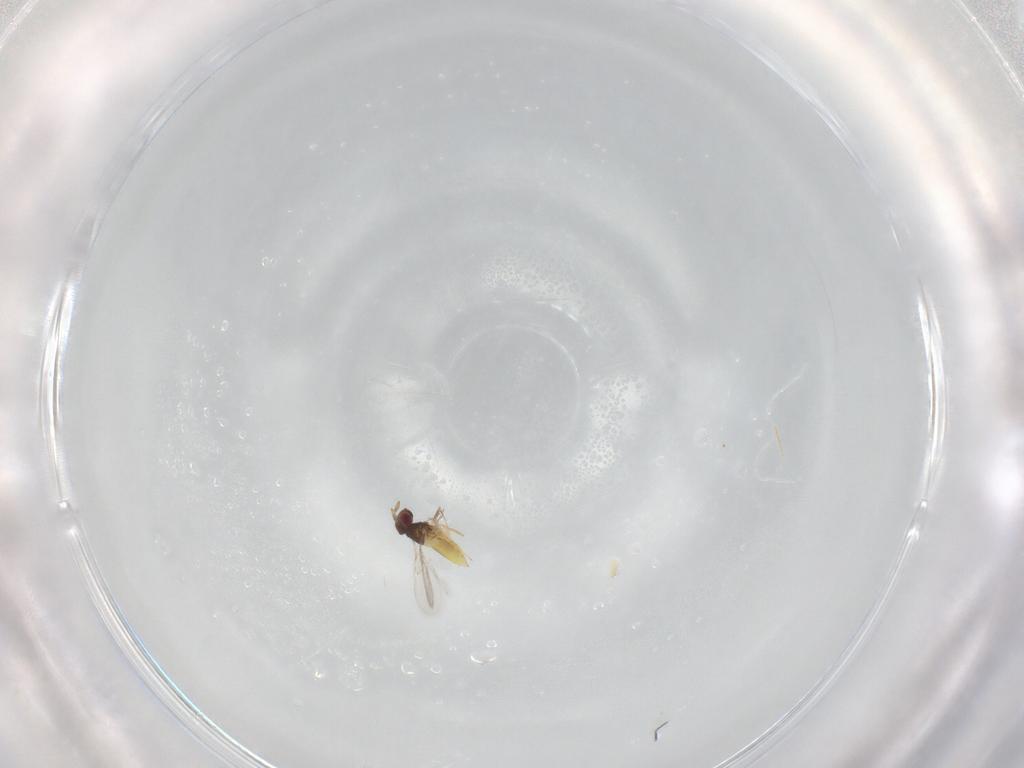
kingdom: Animalia
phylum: Arthropoda
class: Insecta
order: Hymenoptera
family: Trichogrammatidae
